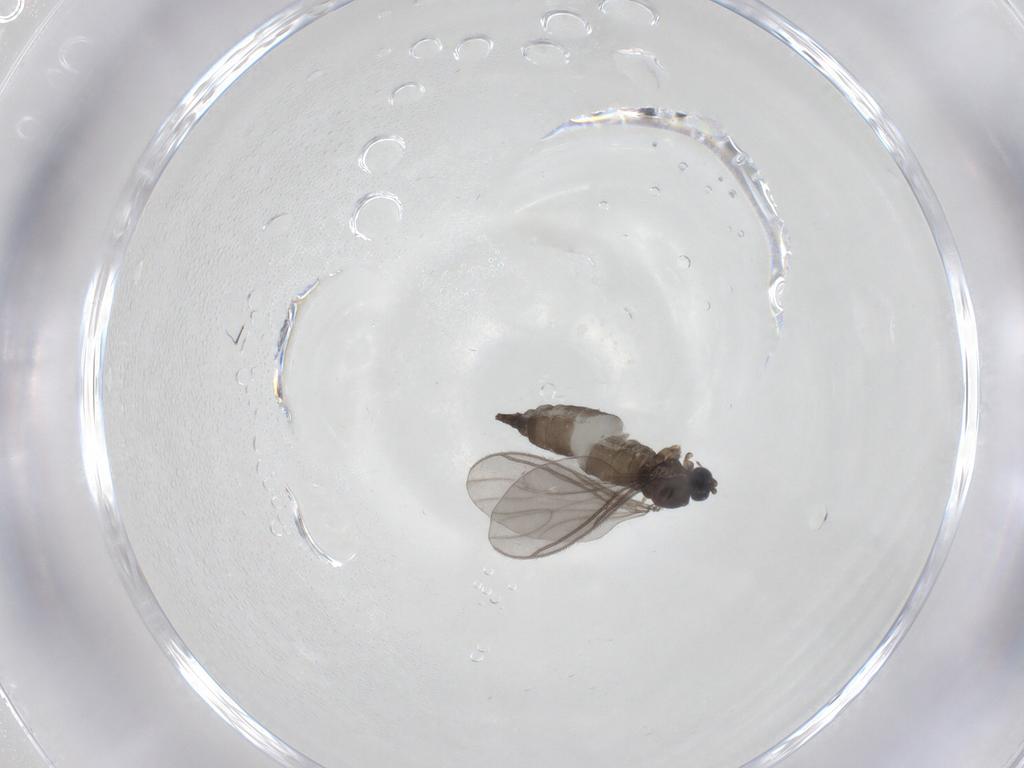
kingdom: Animalia
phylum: Arthropoda
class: Insecta
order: Diptera
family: Sciaridae
